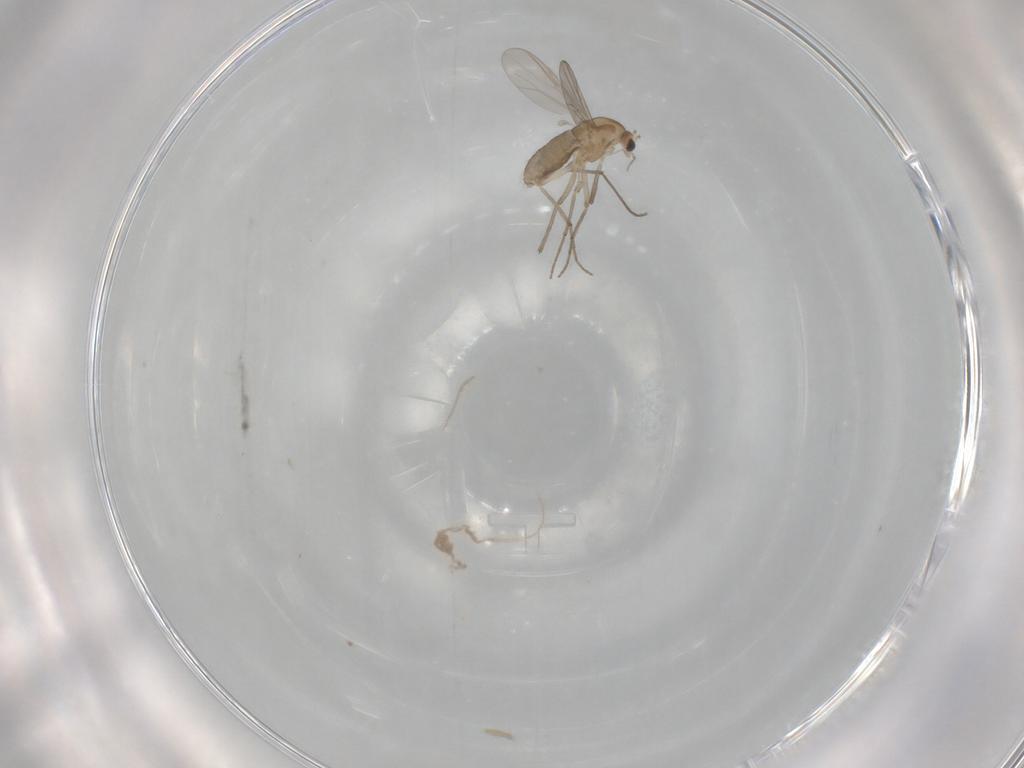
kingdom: Animalia
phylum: Arthropoda
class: Insecta
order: Diptera
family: Chironomidae
